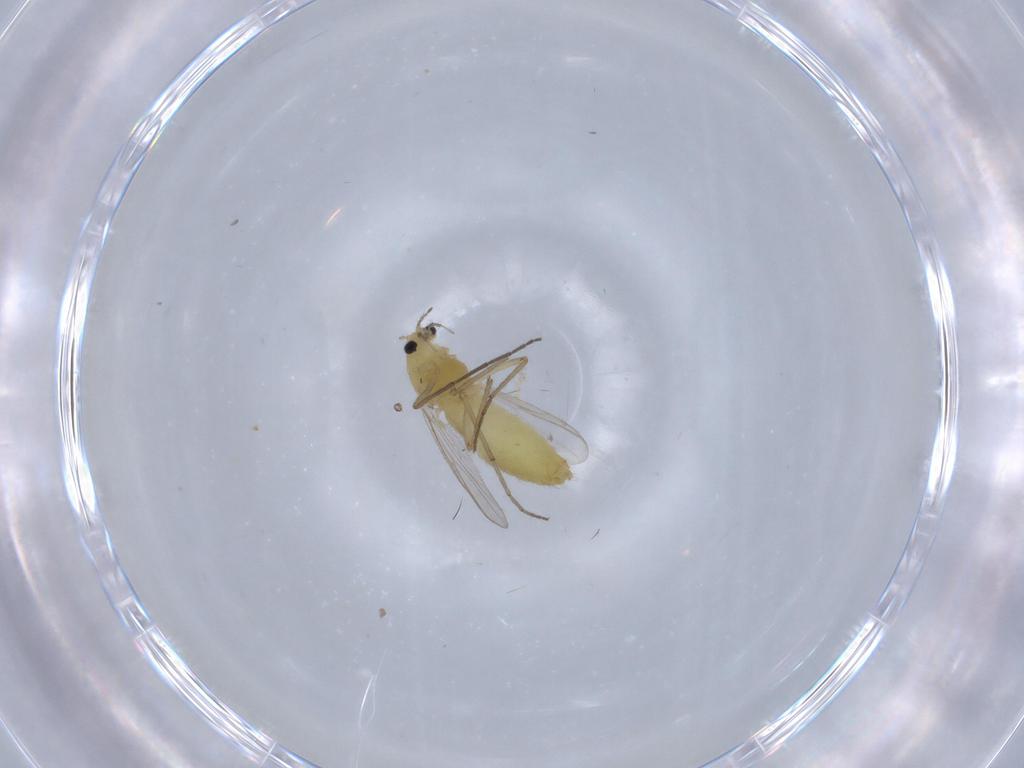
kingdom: Animalia
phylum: Arthropoda
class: Insecta
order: Diptera
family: Chironomidae
